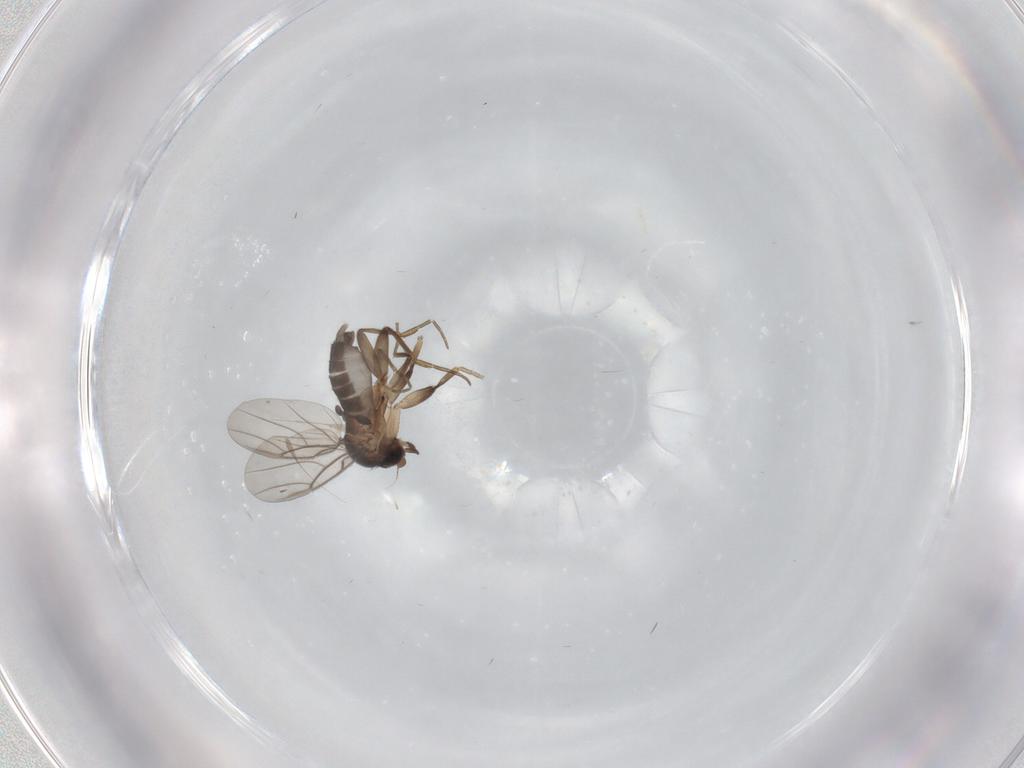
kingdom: Animalia
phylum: Arthropoda
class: Insecta
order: Diptera
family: Phoridae
